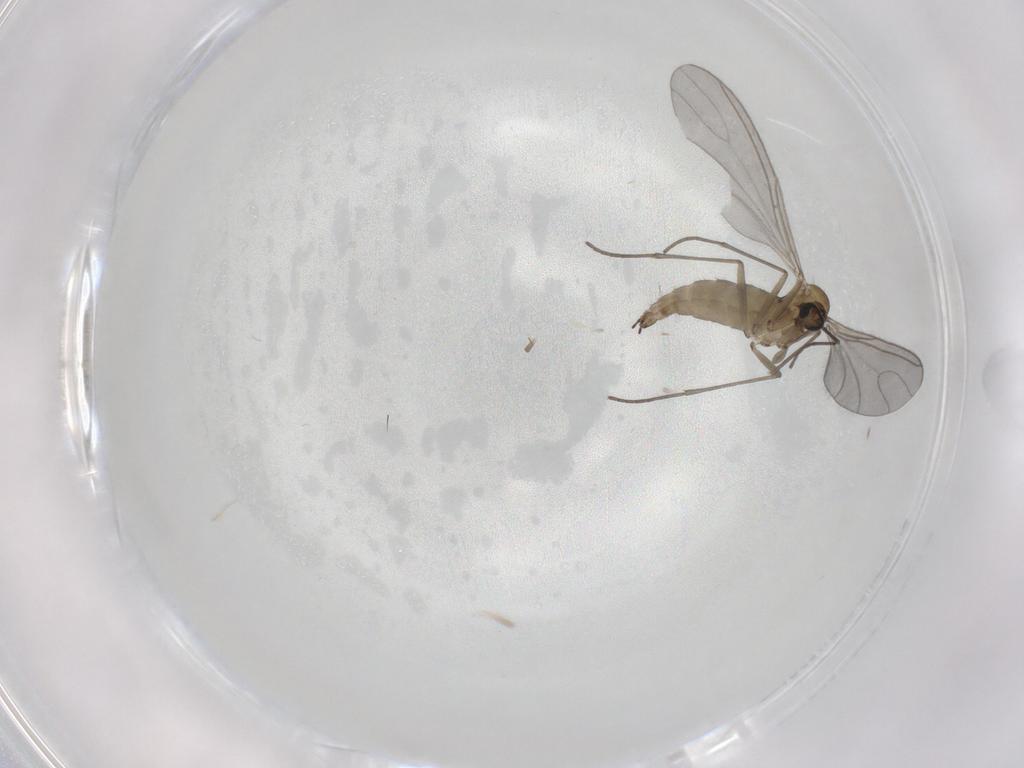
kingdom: Animalia
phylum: Arthropoda
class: Insecta
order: Diptera
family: Sciaridae
